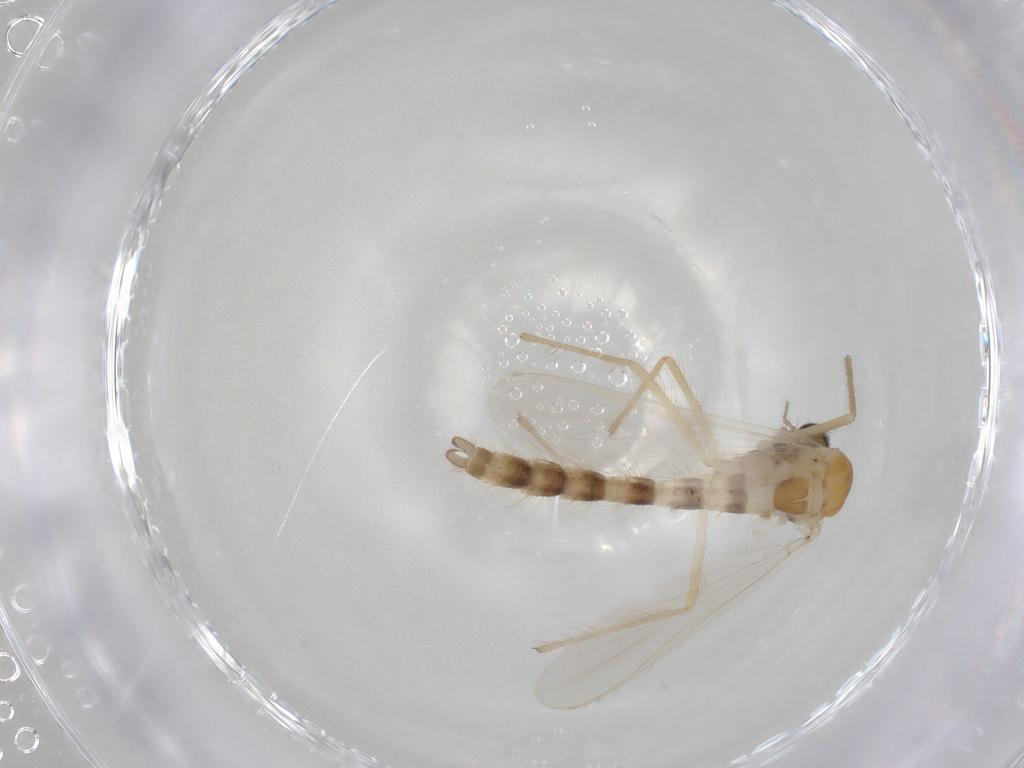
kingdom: Animalia
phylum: Arthropoda
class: Insecta
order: Diptera
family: Chironomidae
